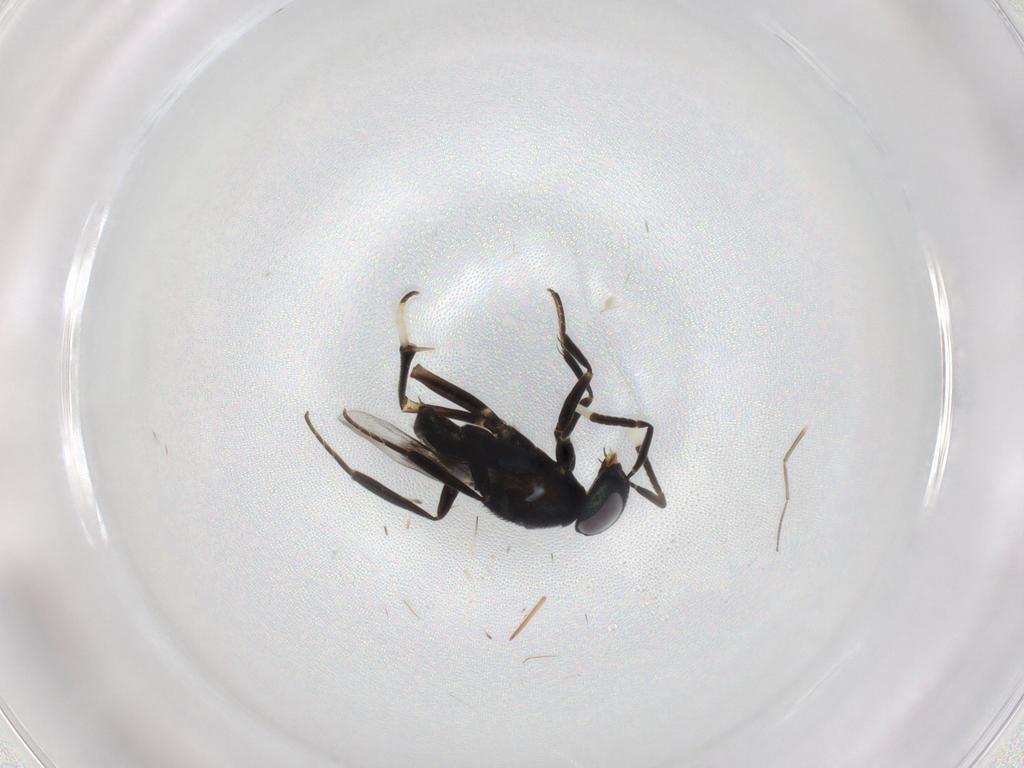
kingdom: Animalia
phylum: Arthropoda
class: Insecta
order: Hymenoptera
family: Encyrtidae
